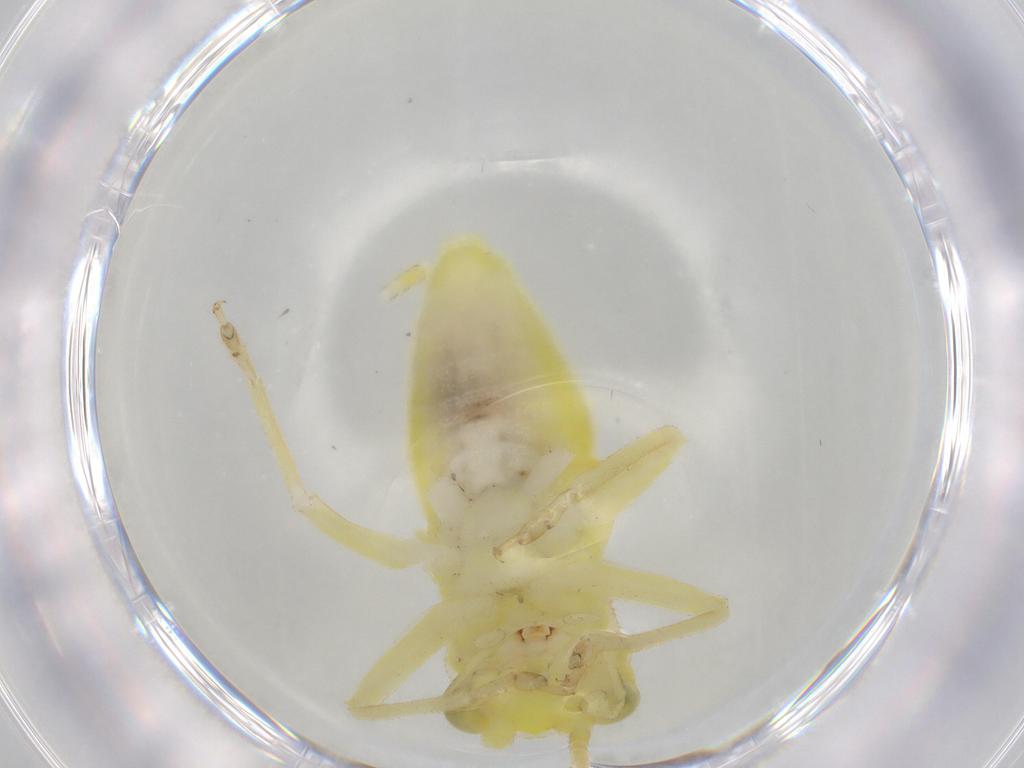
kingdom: Animalia
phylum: Arthropoda
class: Insecta
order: Orthoptera
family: Trigonidiidae
